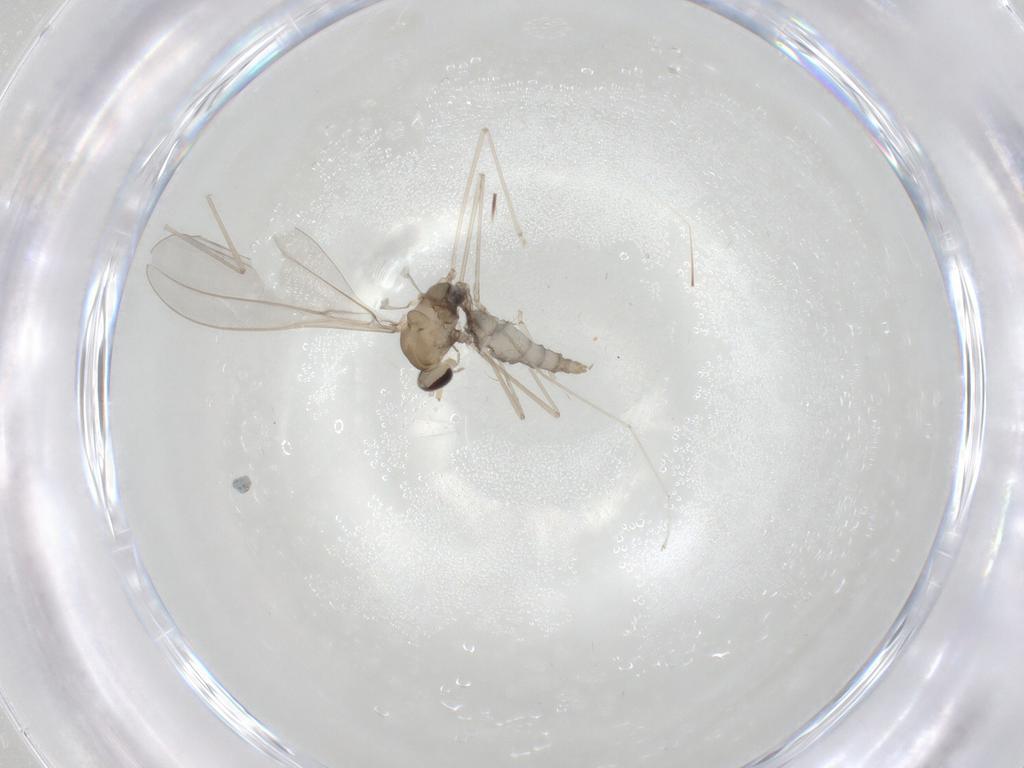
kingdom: Animalia
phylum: Arthropoda
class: Insecta
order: Diptera
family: Cecidomyiidae
